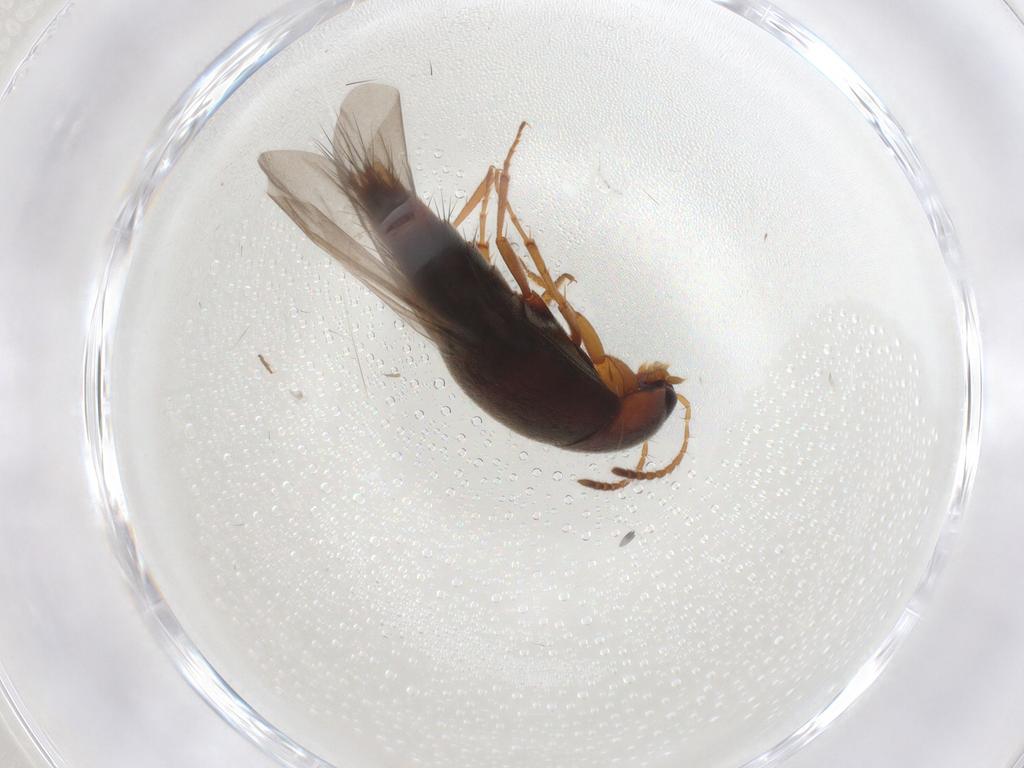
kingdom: Animalia
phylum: Arthropoda
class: Insecta
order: Coleoptera
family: Staphylinidae
